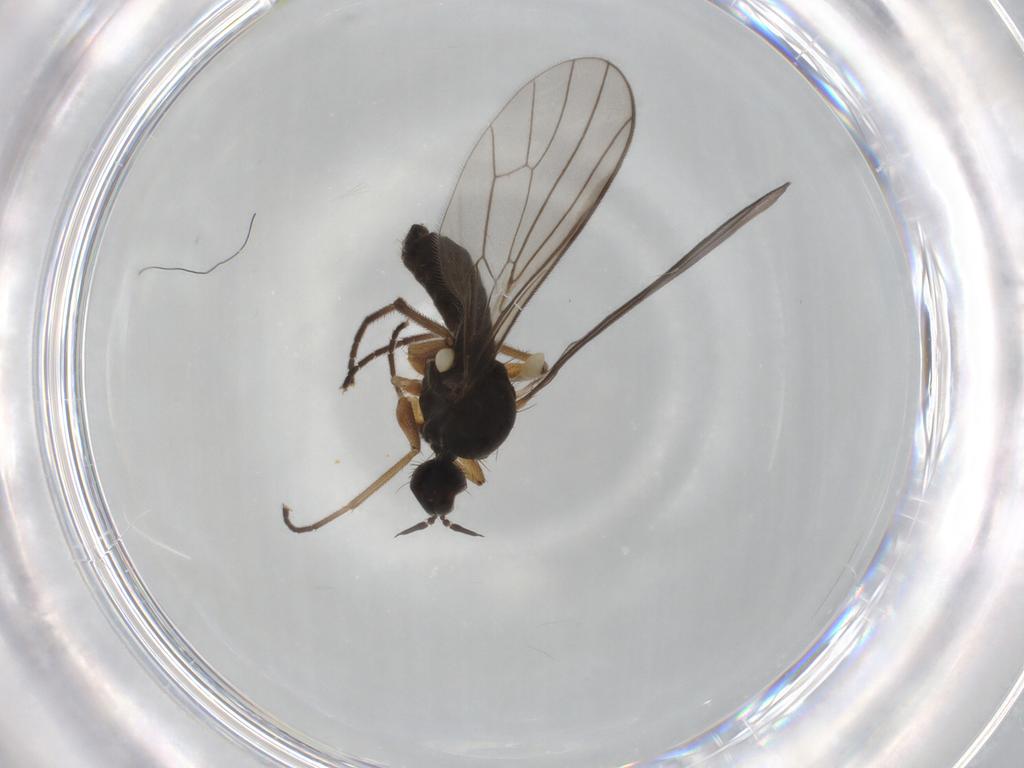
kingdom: Animalia
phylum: Arthropoda
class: Insecta
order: Diptera
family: Empididae
